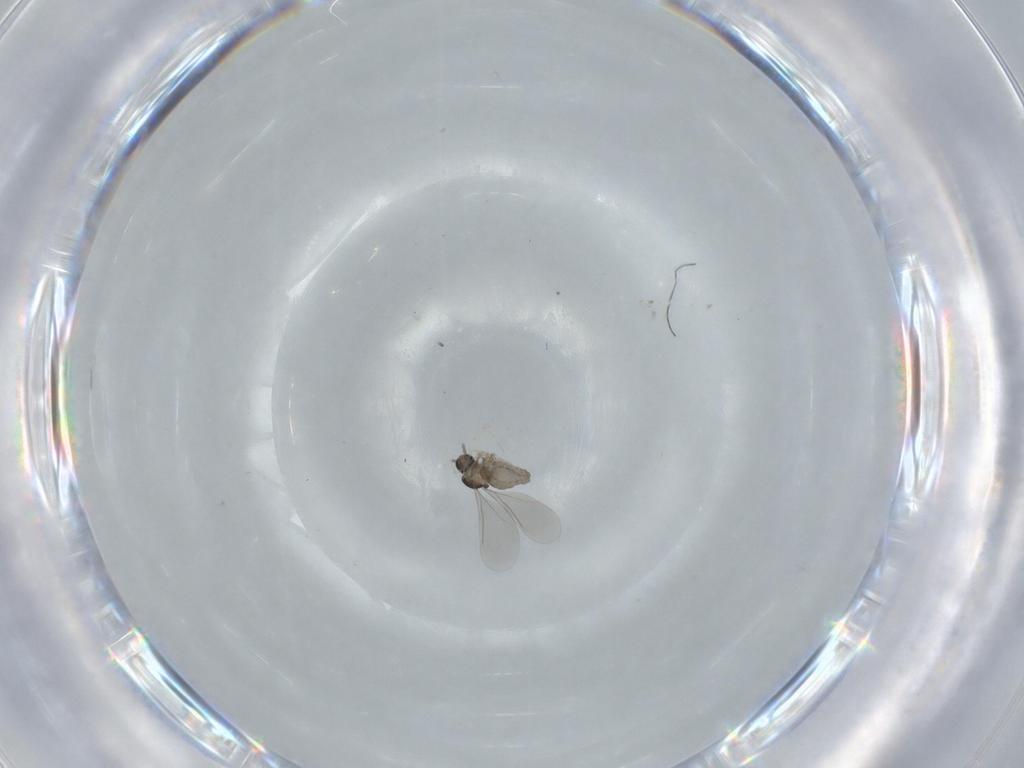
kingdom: Animalia
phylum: Arthropoda
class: Insecta
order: Diptera
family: Cecidomyiidae
